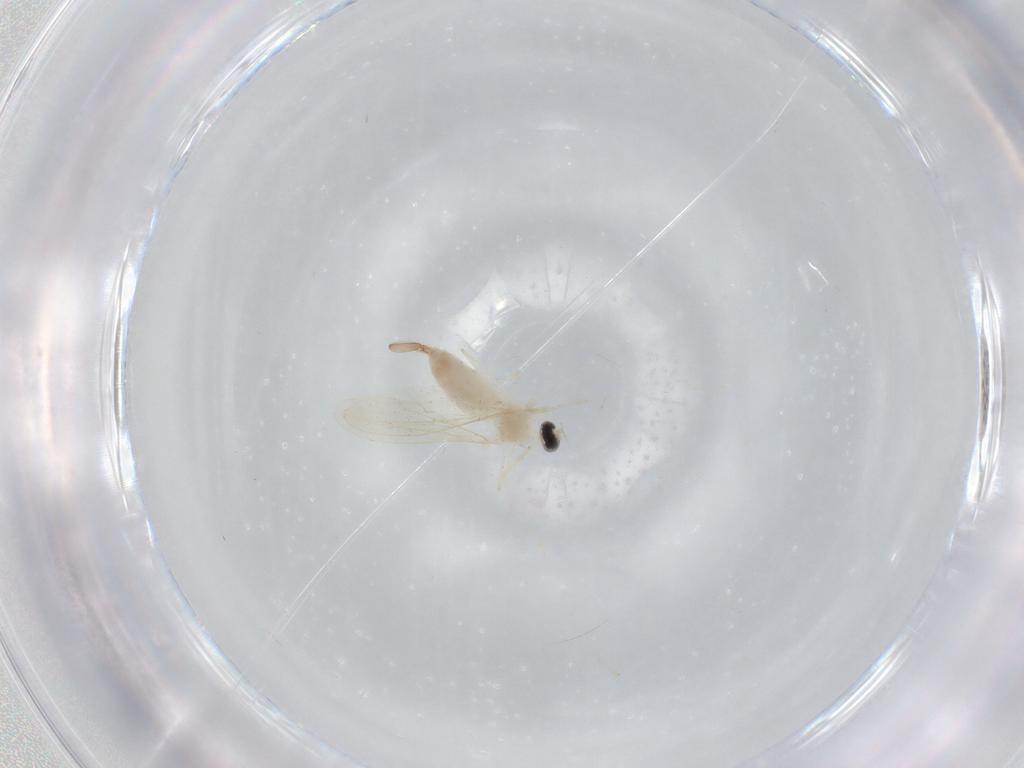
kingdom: Animalia
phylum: Arthropoda
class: Insecta
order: Diptera
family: Cecidomyiidae
